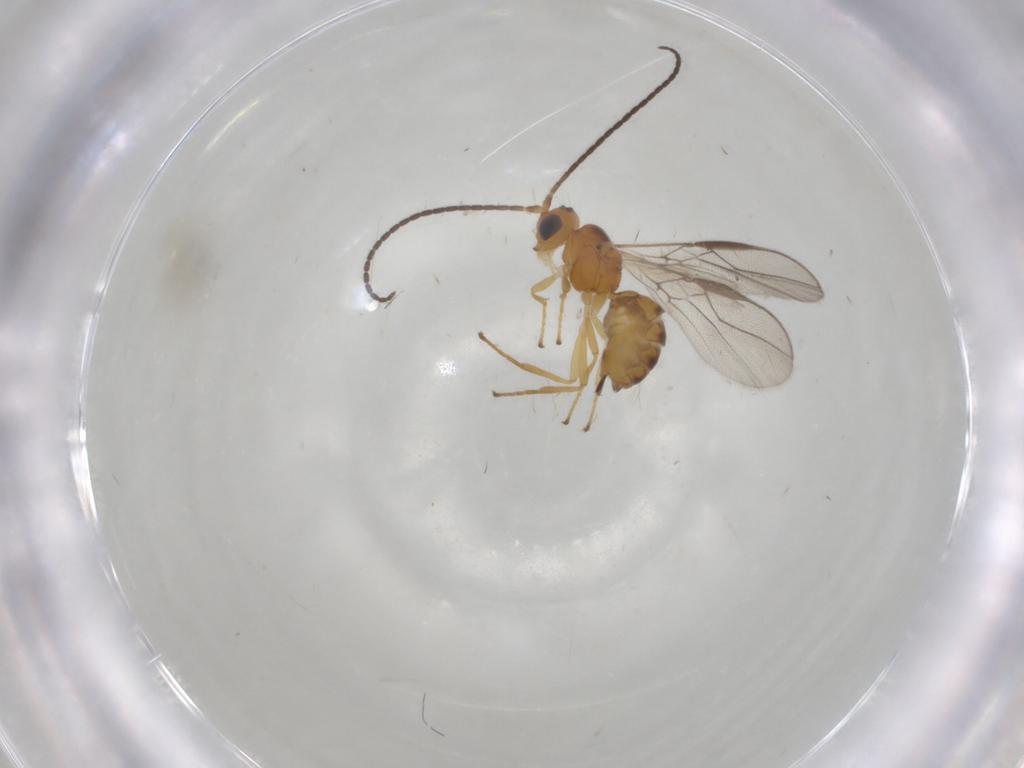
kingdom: Animalia
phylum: Arthropoda
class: Insecta
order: Hymenoptera
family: Braconidae
